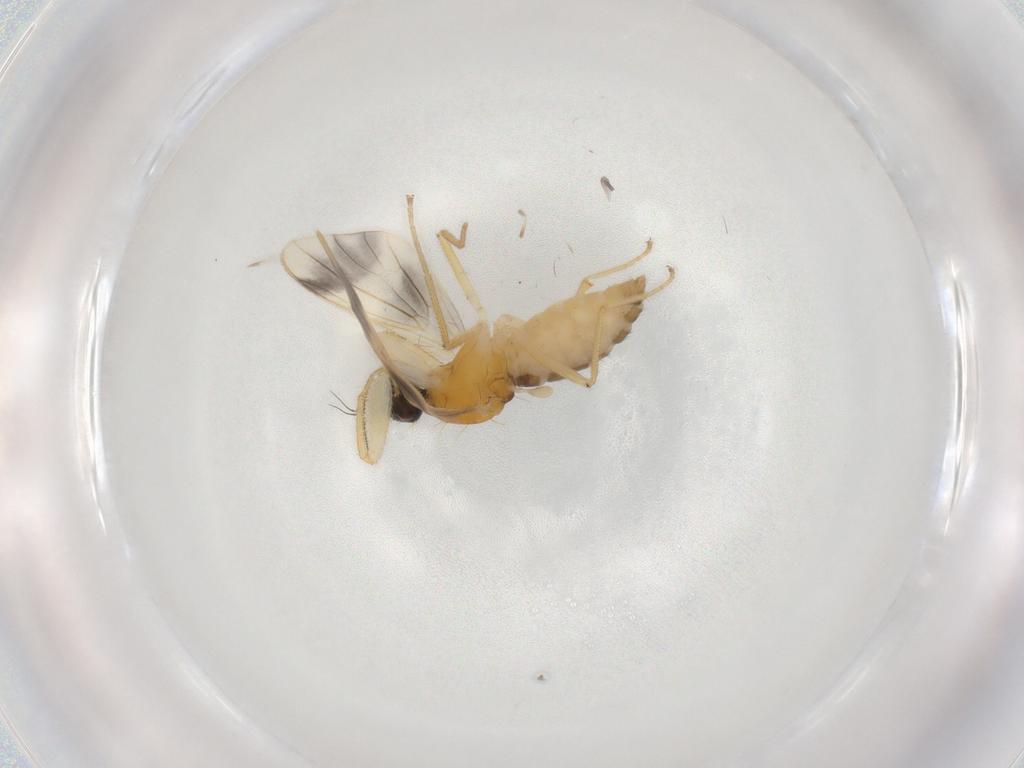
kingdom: Animalia
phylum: Arthropoda
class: Insecta
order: Diptera
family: Empididae
